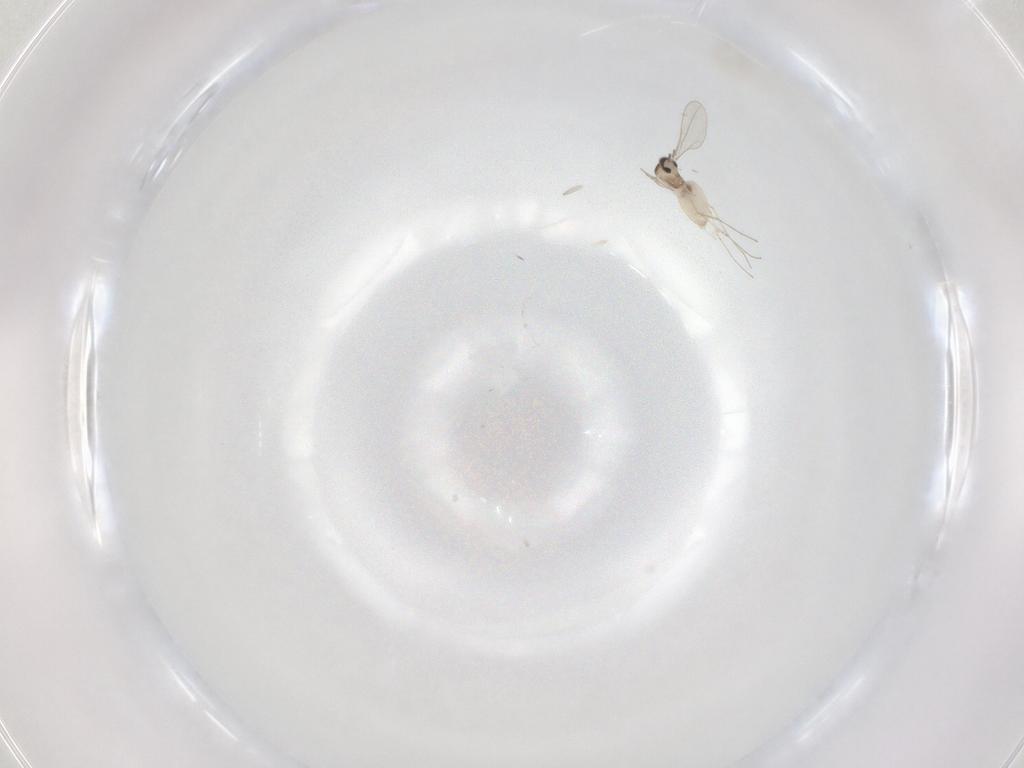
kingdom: Animalia
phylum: Arthropoda
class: Insecta
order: Diptera
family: Cecidomyiidae
